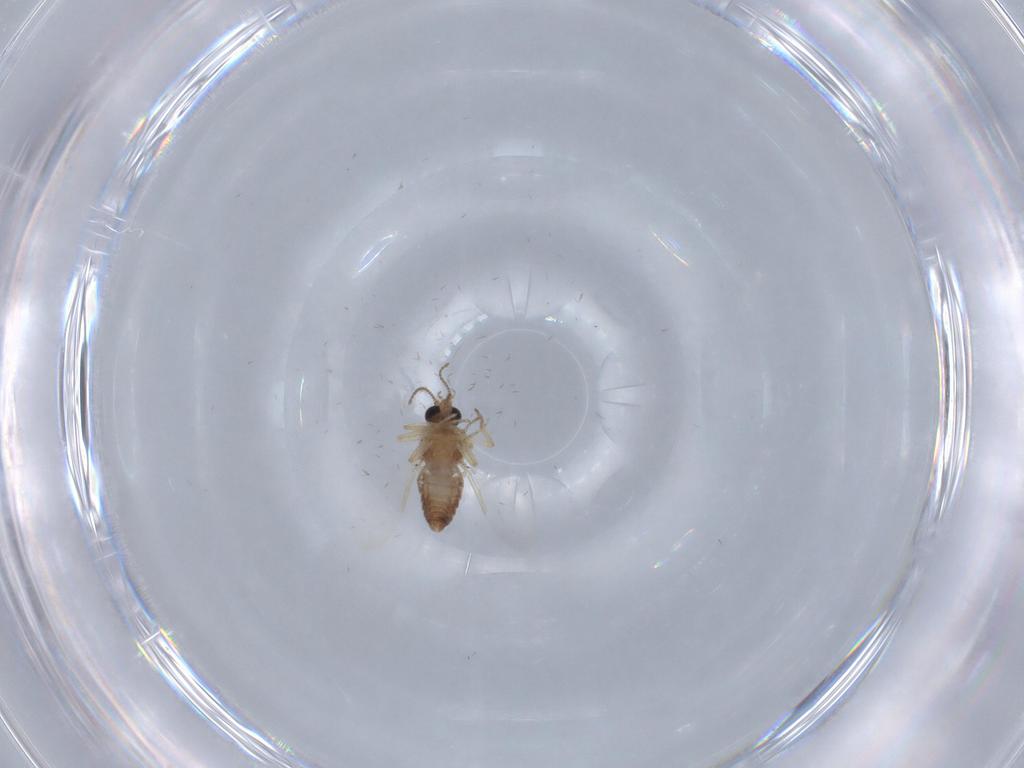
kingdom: Animalia
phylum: Arthropoda
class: Insecta
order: Diptera
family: Ceratopogonidae
